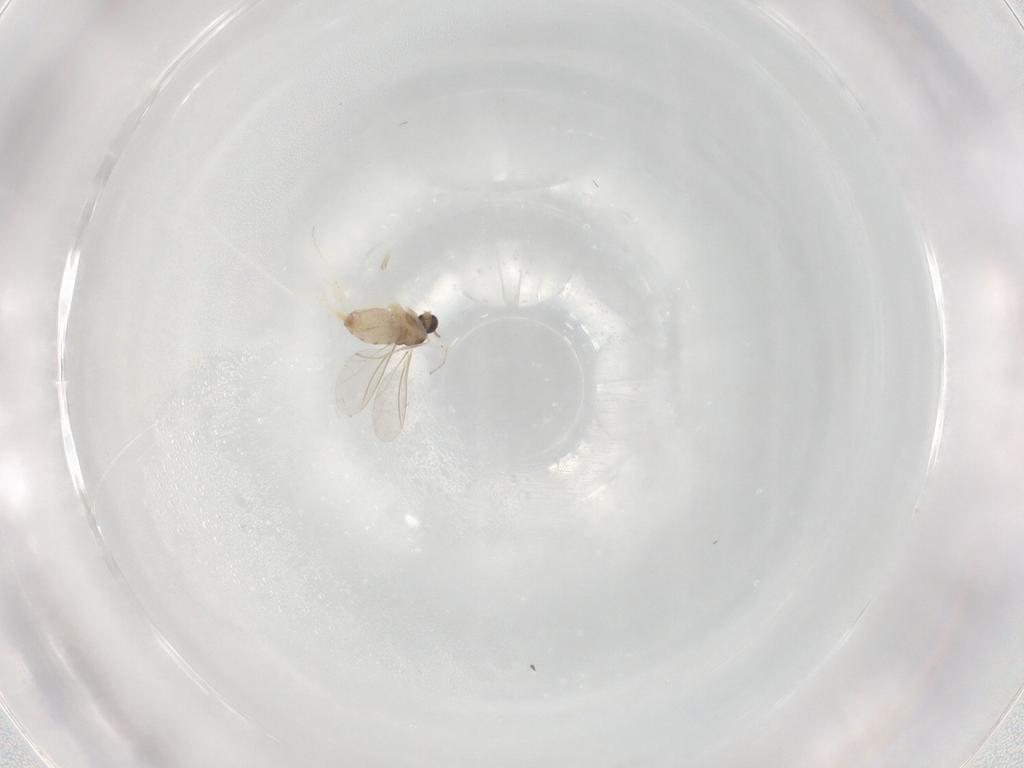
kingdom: Animalia
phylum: Arthropoda
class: Insecta
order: Diptera
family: Cecidomyiidae
